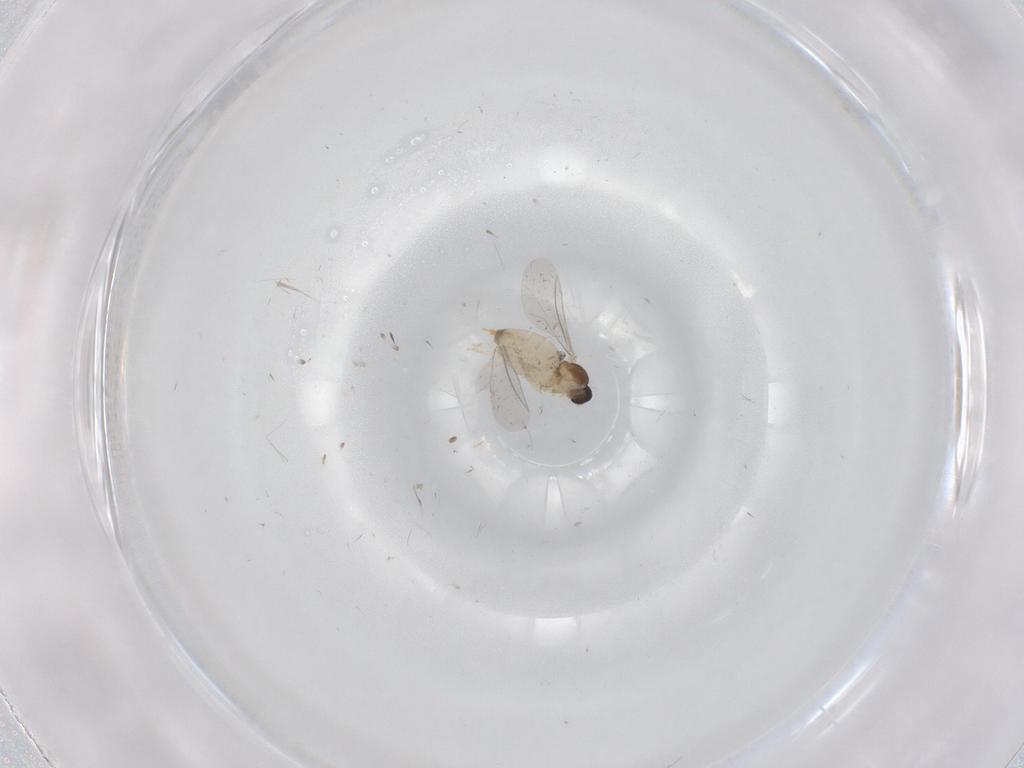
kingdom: Animalia
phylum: Arthropoda
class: Insecta
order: Diptera
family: Cecidomyiidae
